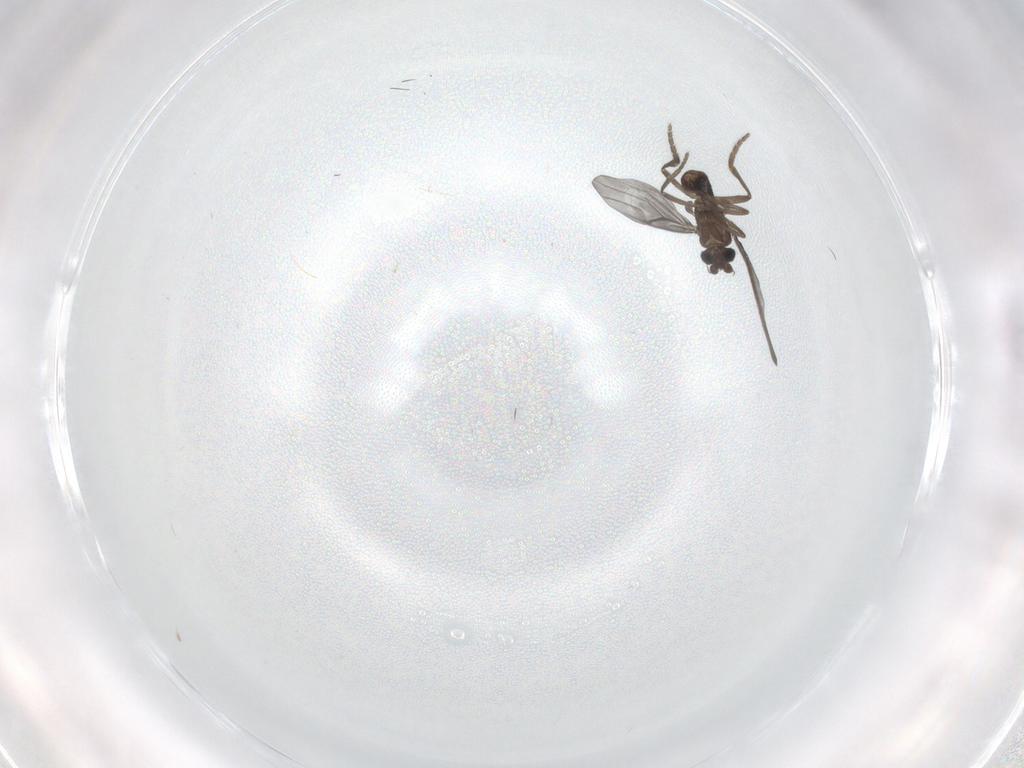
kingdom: Animalia
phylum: Arthropoda
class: Insecta
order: Diptera
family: Phoridae
